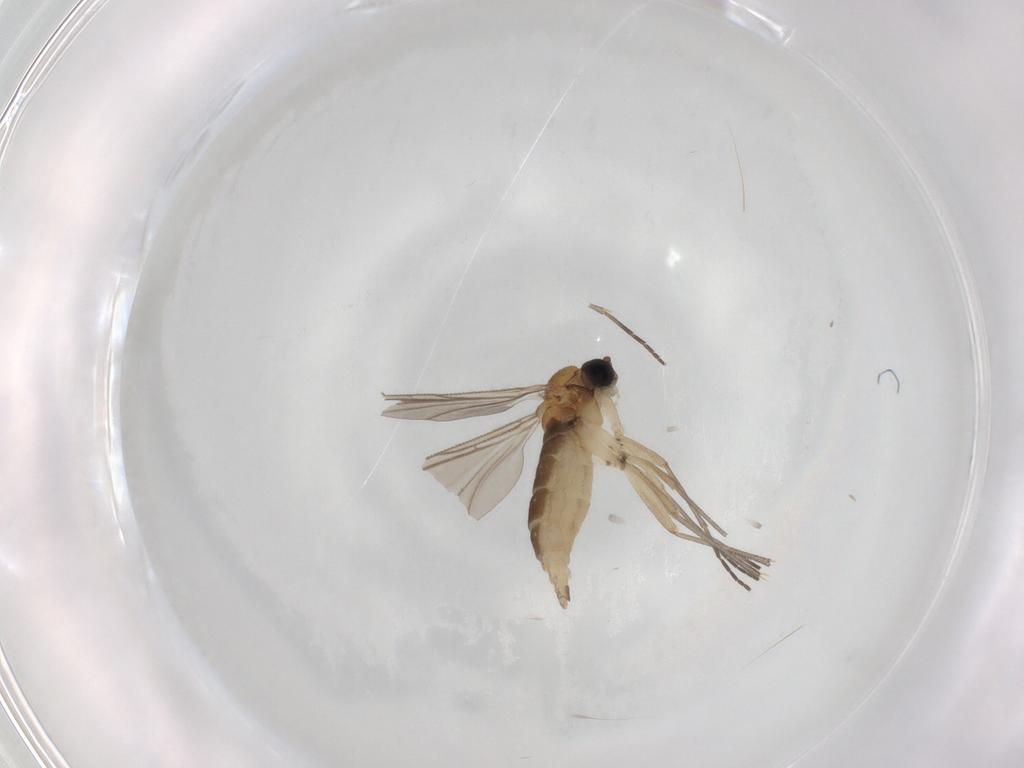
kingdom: Animalia
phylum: Arthropoda
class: Insecta
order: Diptera
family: Sciaridae
